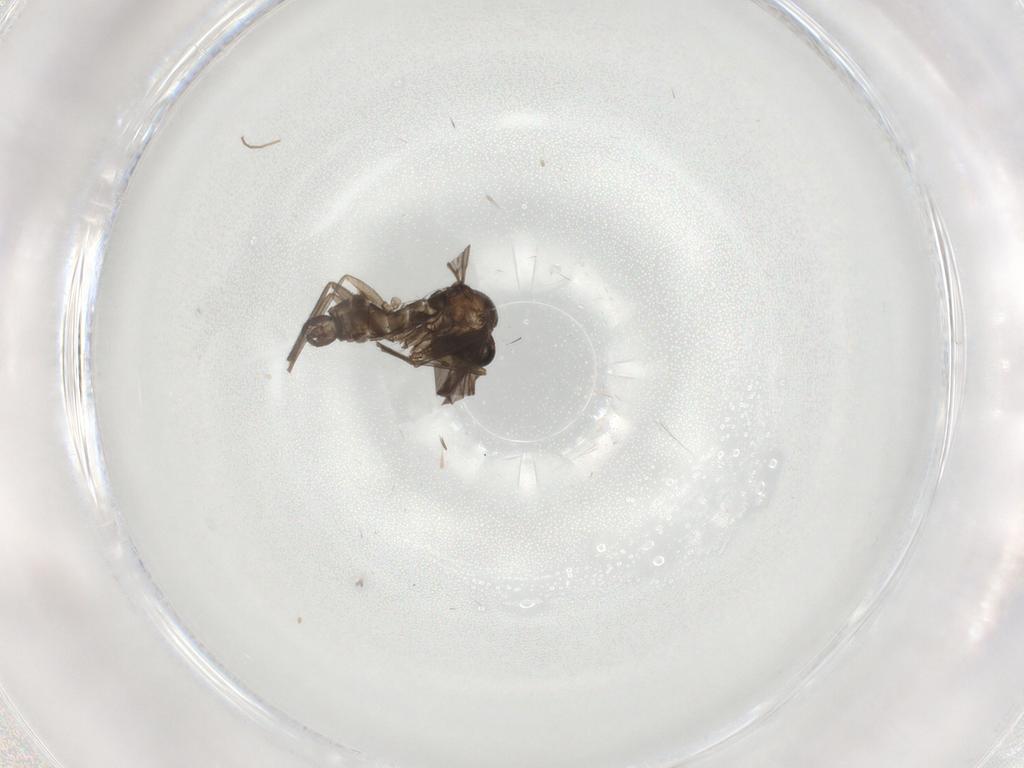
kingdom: Animalia
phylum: Arthropoda
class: Insecta
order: Diptera
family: Sciaridae
